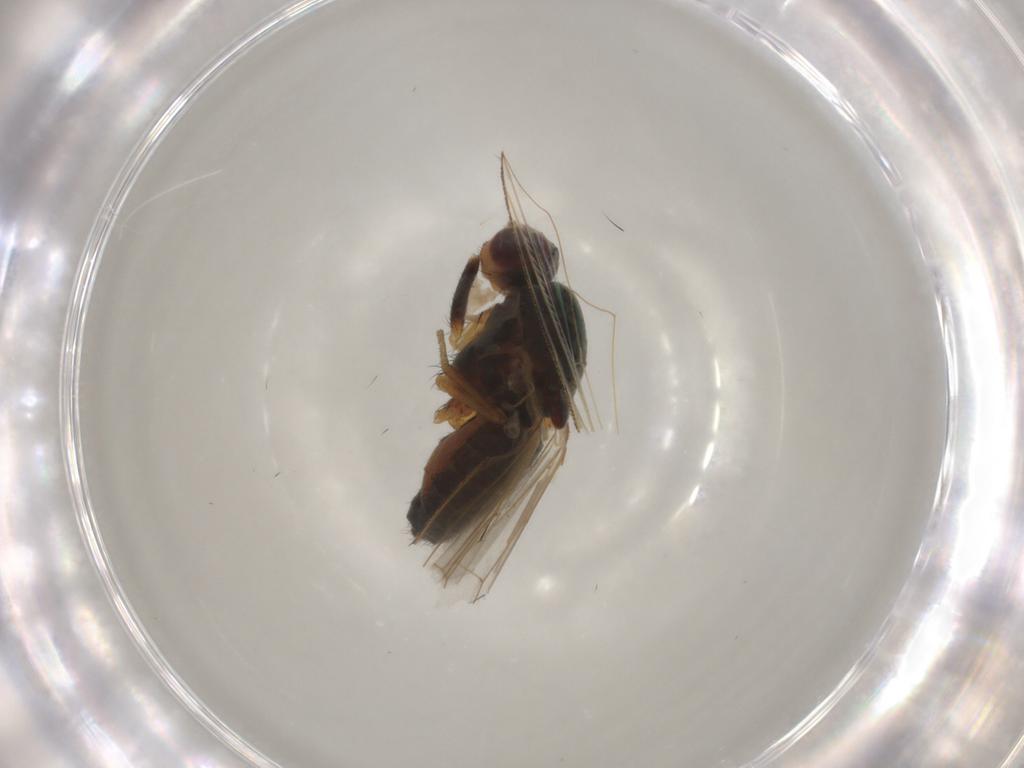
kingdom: Animalia
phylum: Arthropoda
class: Insecta
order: Diptera
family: Heleomyzidae
